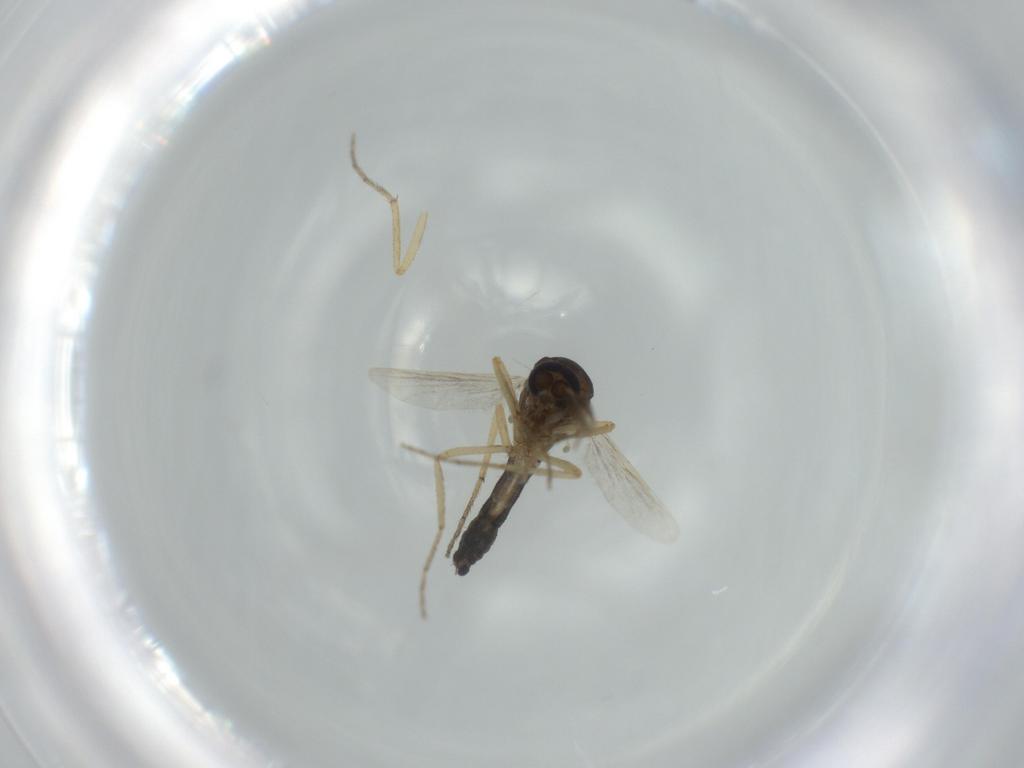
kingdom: Animalia
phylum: Arthropoda
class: Insecta
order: Diptera
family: Ceratopogonidae
